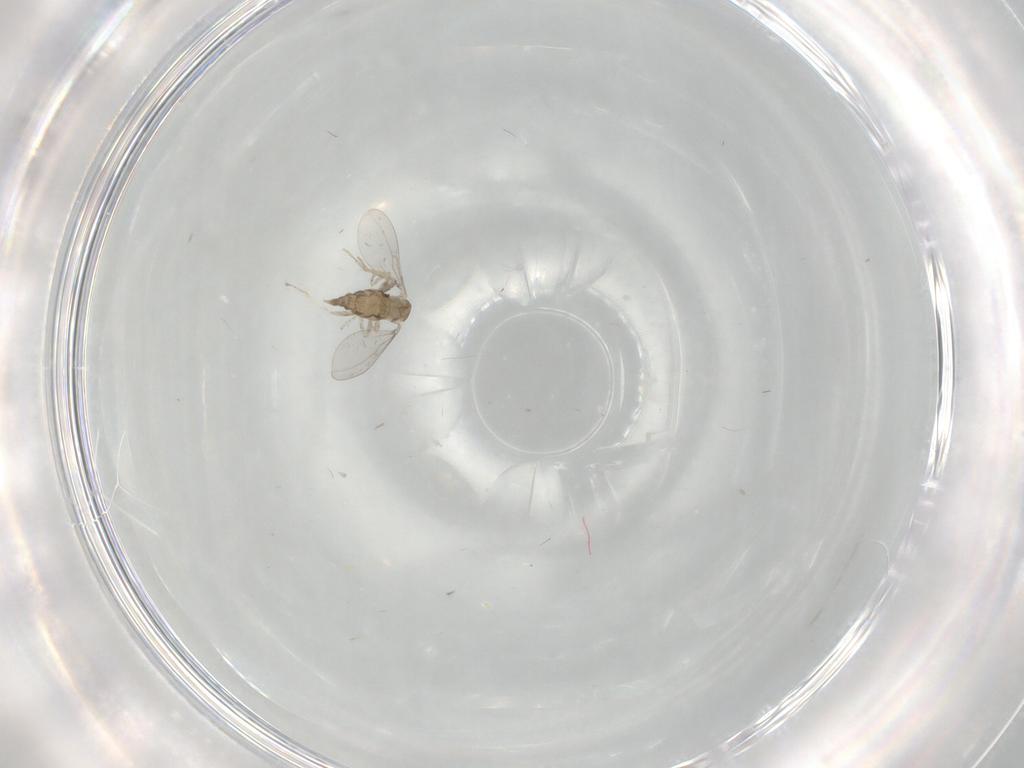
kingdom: Animalia
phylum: Arthropoda
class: Insecta
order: Diptera
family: Cecidomyiidae
